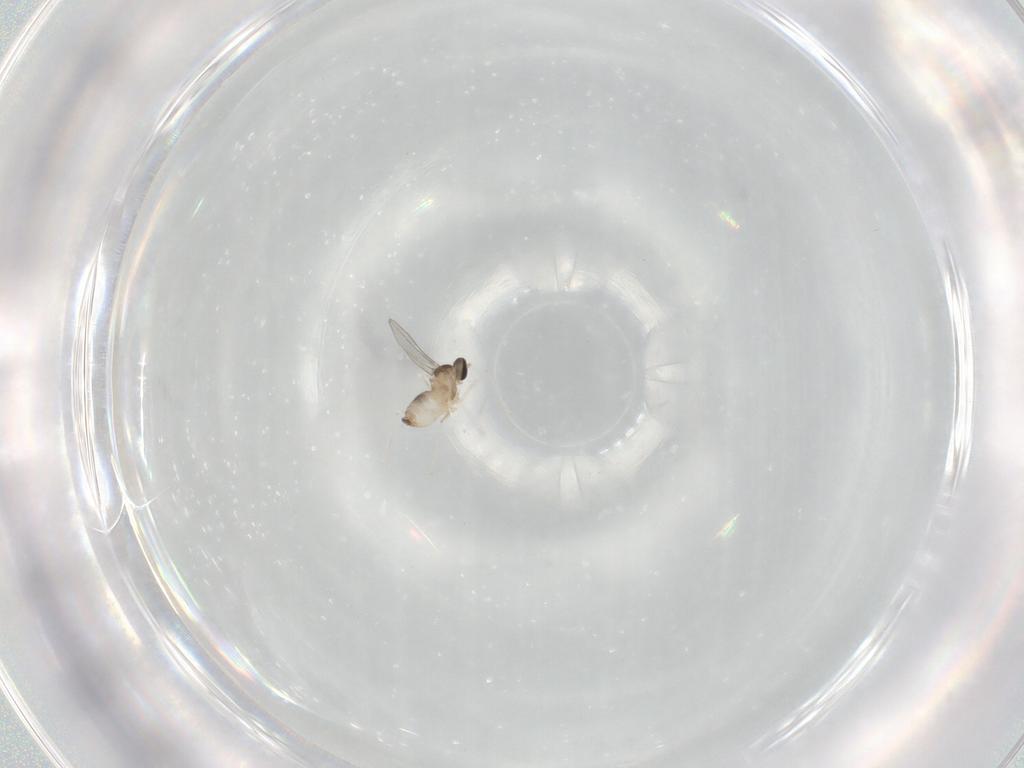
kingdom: Animalia
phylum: Arthropoda
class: Insecta
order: Diptera
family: Cecidomyiidae
